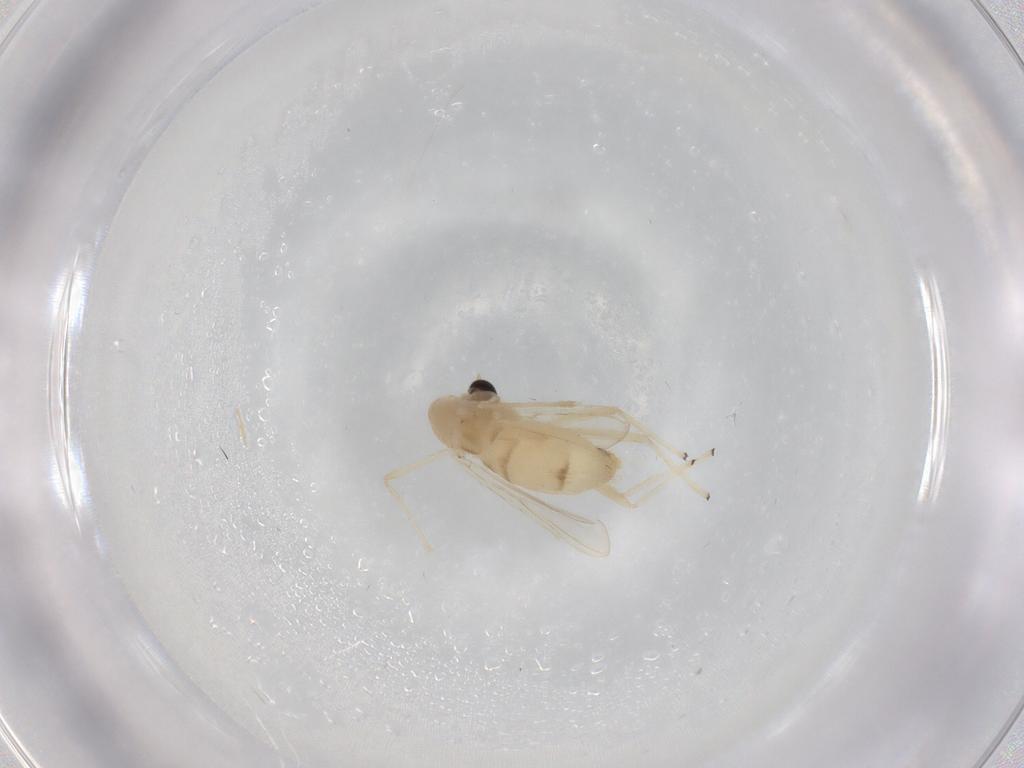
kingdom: Animalia
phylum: Arthropoda
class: Insecta
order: Diptera
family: Chironomidae
